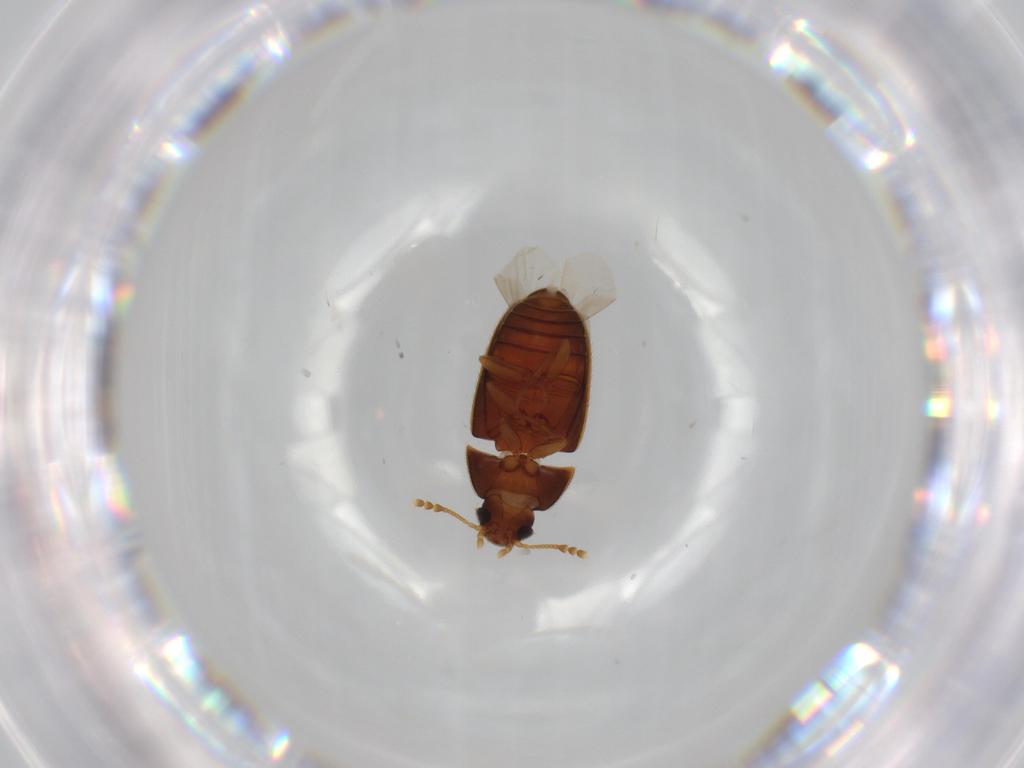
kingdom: Animalia
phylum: Arthropoda
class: Insecta
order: Coleoptera
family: Mycetophagidae
